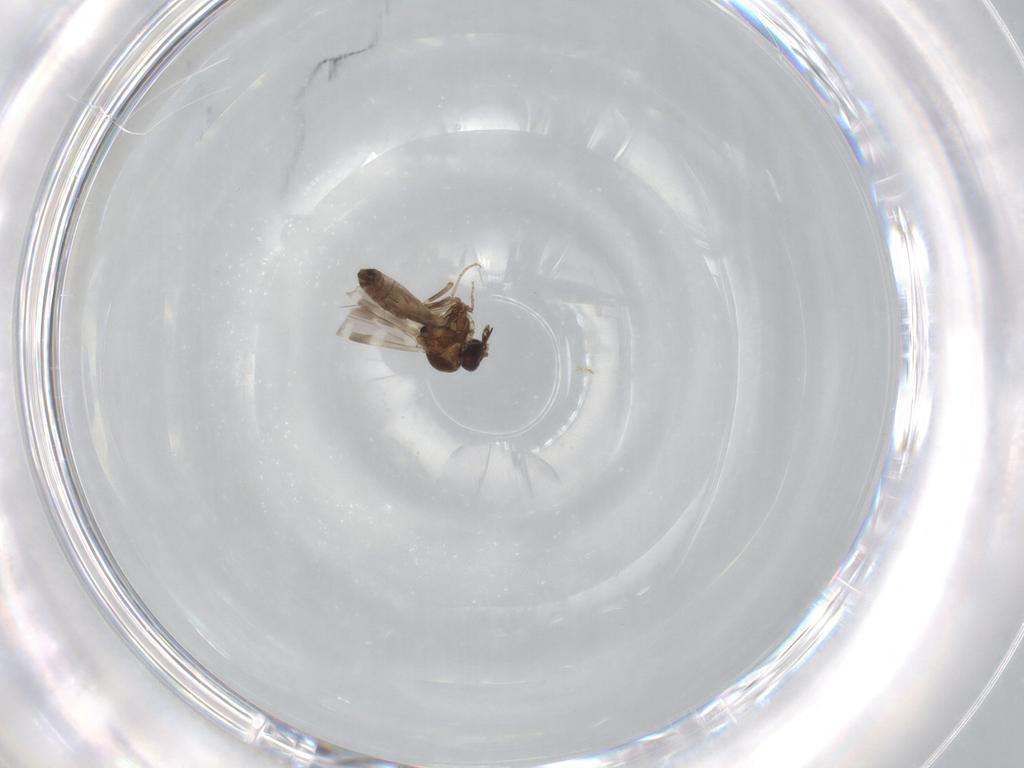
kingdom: Animalia
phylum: Arthropoda
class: Insecta
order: Diptera
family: Ceratopogonidae
